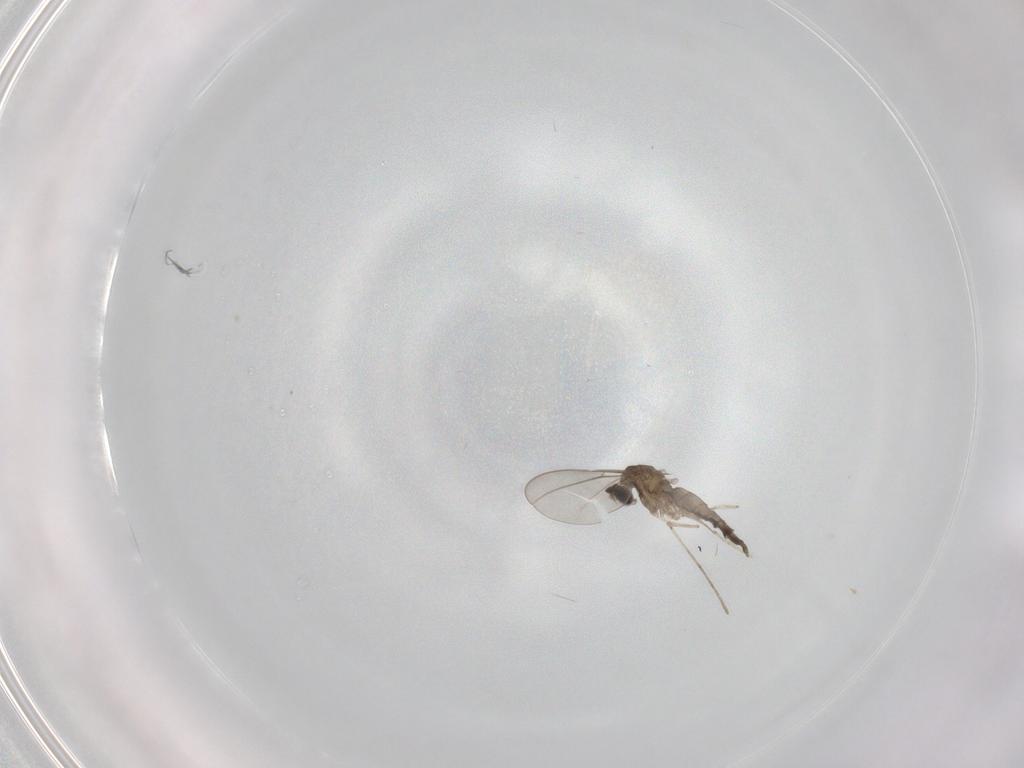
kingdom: Animalia
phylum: Arthropoda
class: Insecta
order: Diptera
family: Cecidomyiidae
